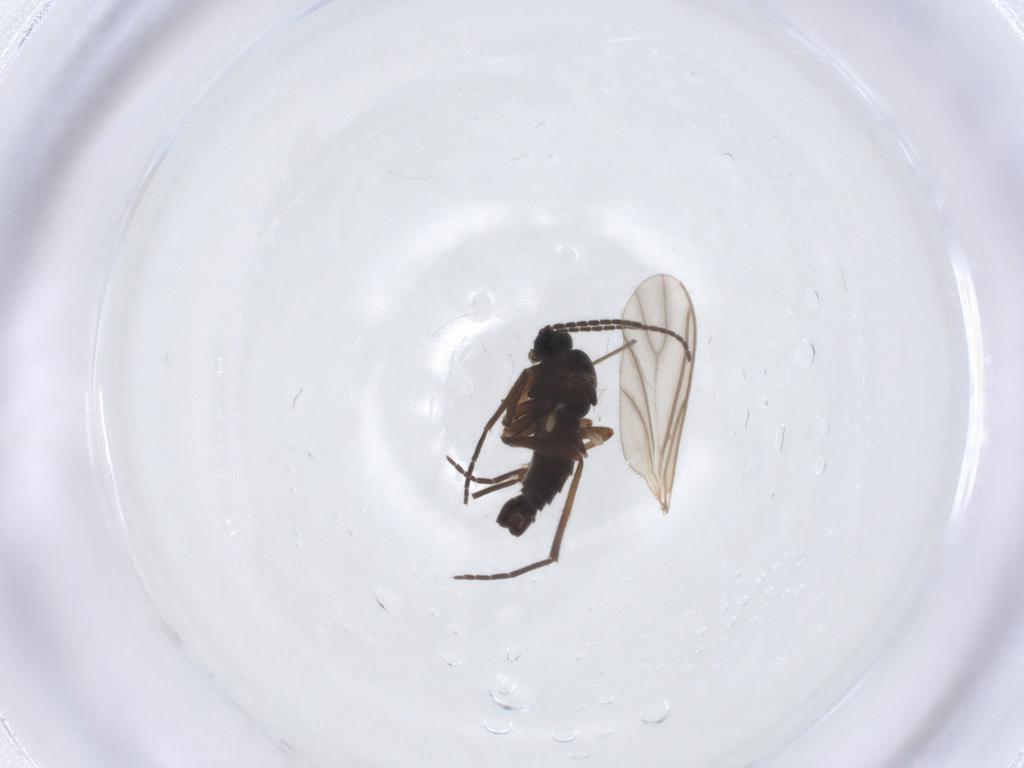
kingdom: Animalia
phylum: Arthropoda
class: Insecta
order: Diptera
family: Sciaridae
